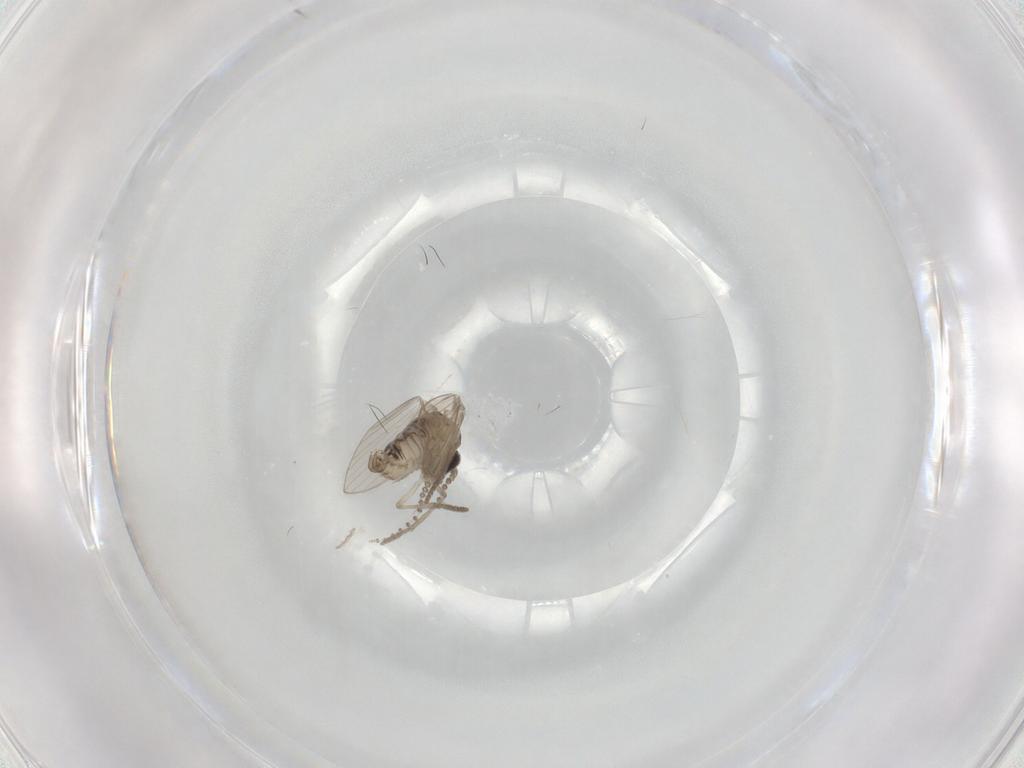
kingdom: Animalia
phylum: Arthropoda
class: Insecta
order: Diptera
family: Psychodidae
